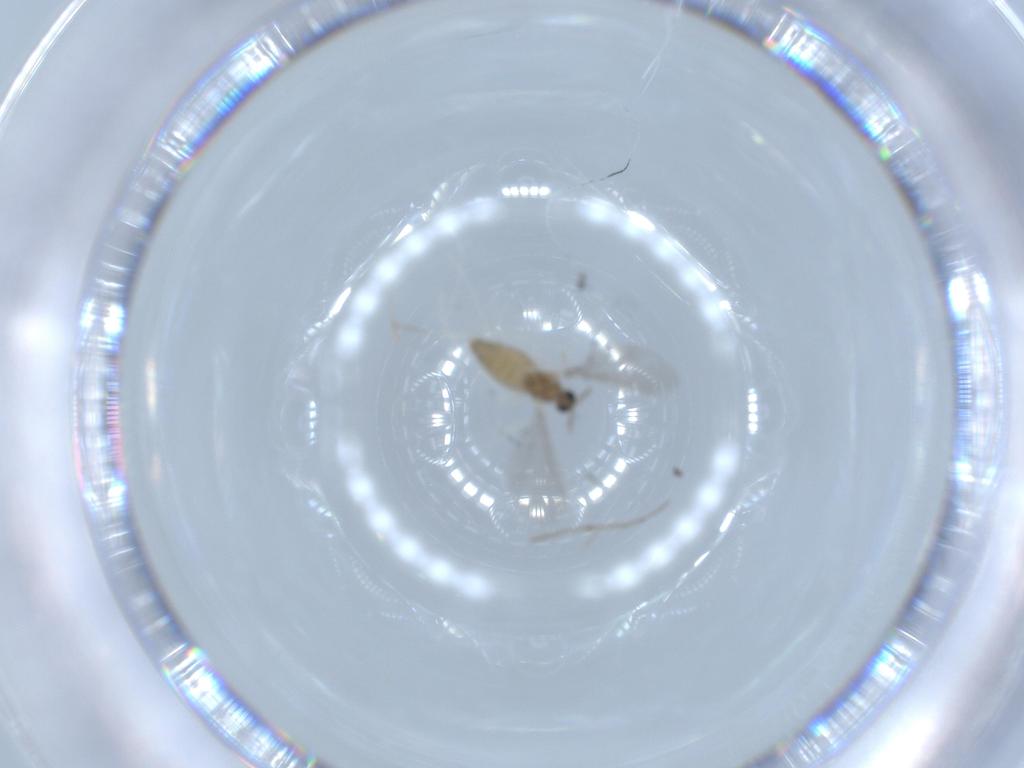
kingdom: Animalia
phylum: Arthropoda
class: Insecta
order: Diptera
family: Cecidomyiidae
